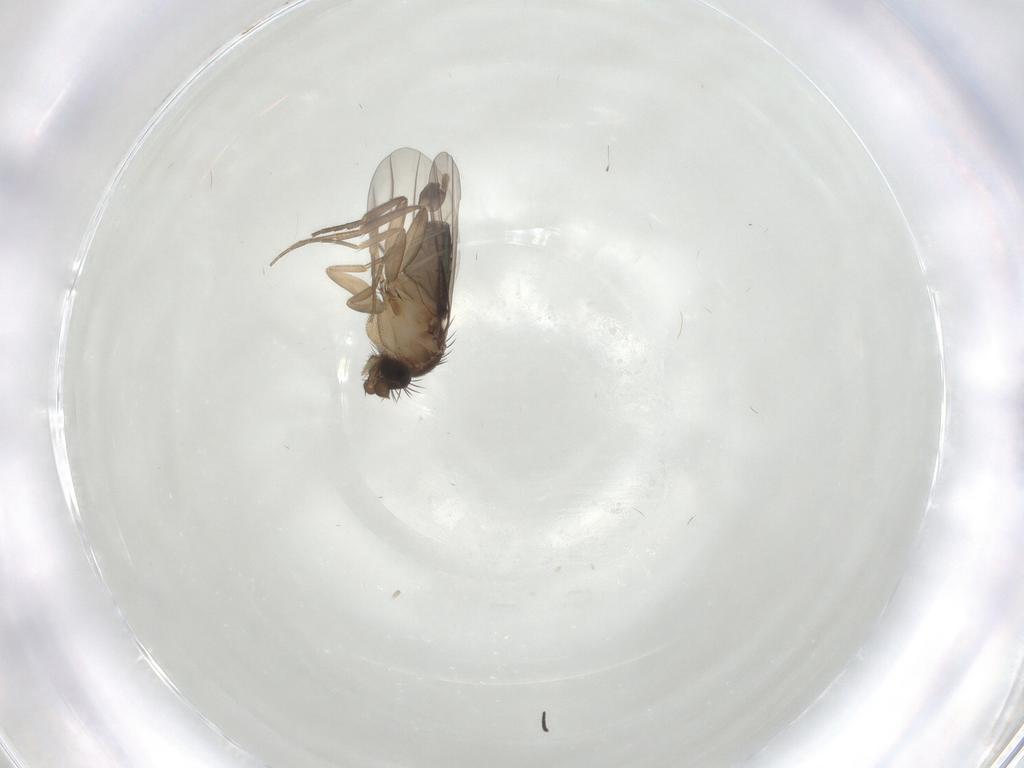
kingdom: Animalia
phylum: Arthropoda
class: Insecta
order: Diptera
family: Phoridae
